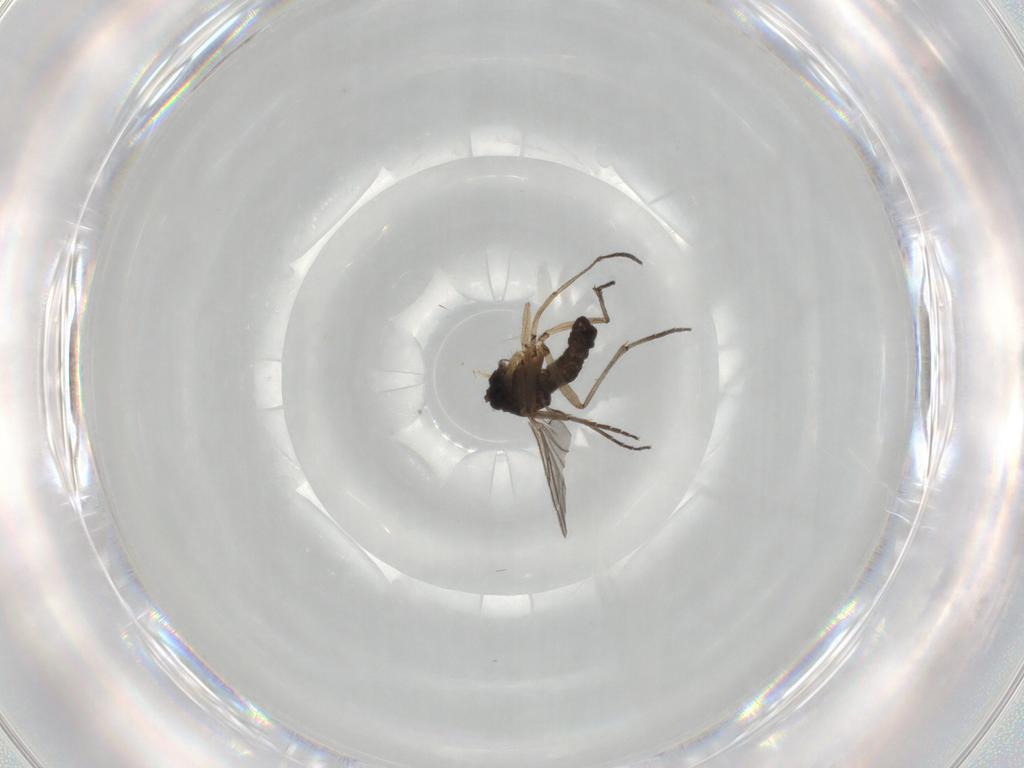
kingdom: Animalia
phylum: Arthropoda
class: Insecta
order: Diptera
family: Sciaridae
